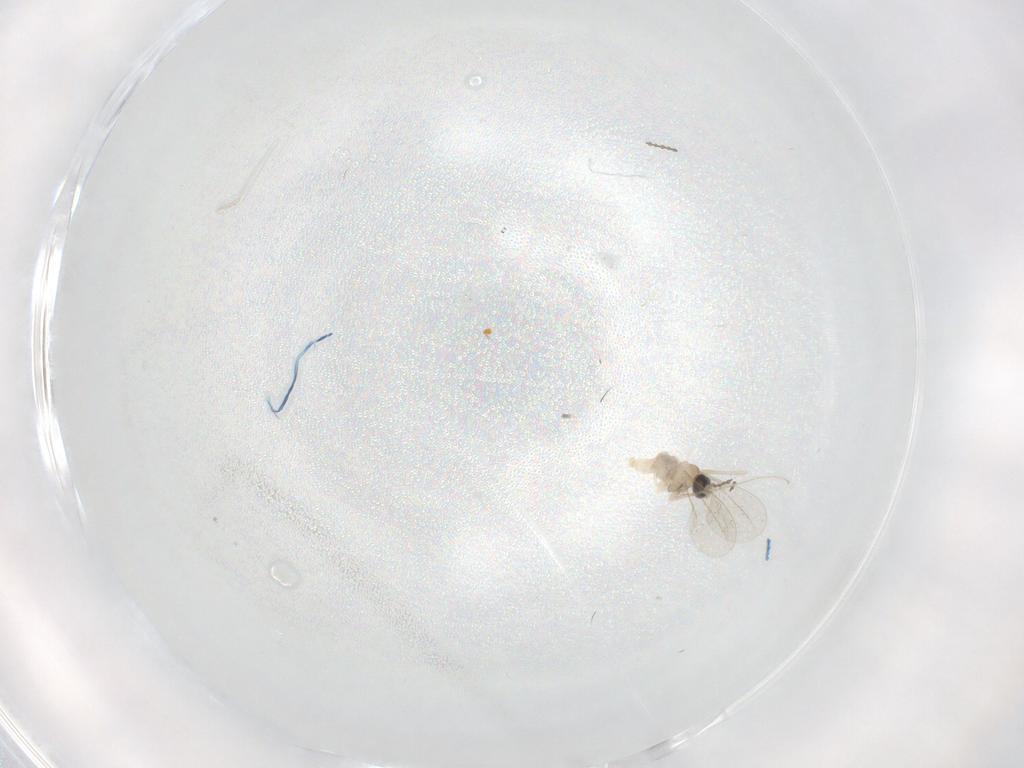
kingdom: Animalia
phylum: Arthropoda
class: Insecta
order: Diptera
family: Cecidomyiidae
